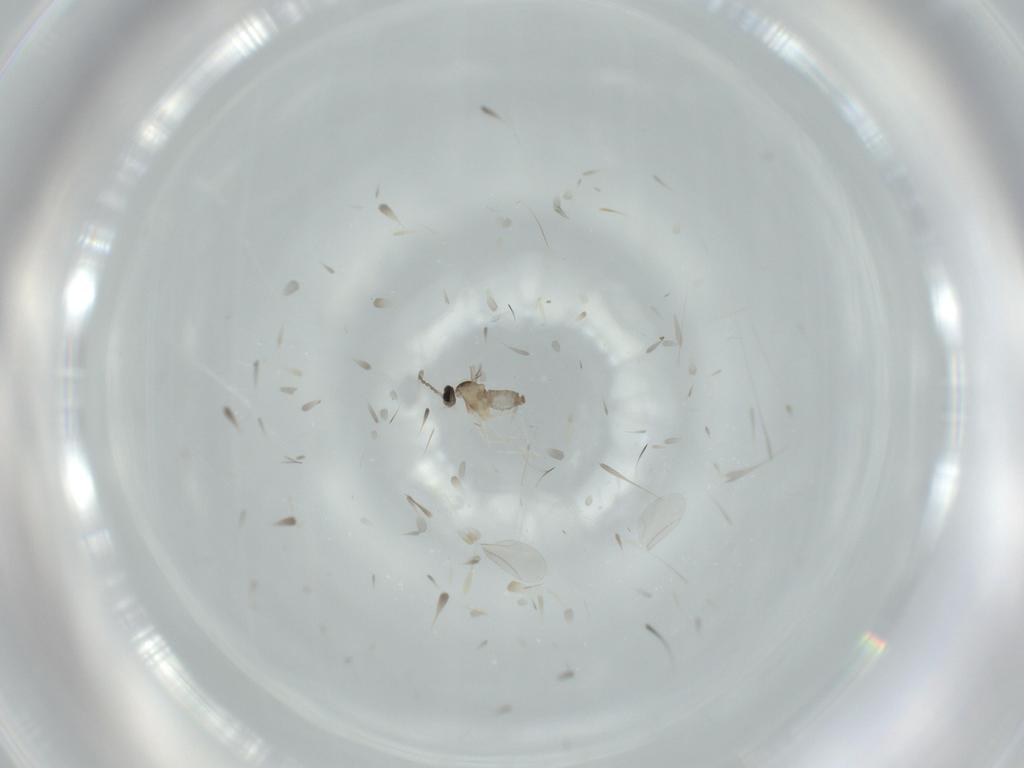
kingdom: Animalia
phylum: Arthropoda
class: Insecta
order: Diptera
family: Cecidomyiidae
